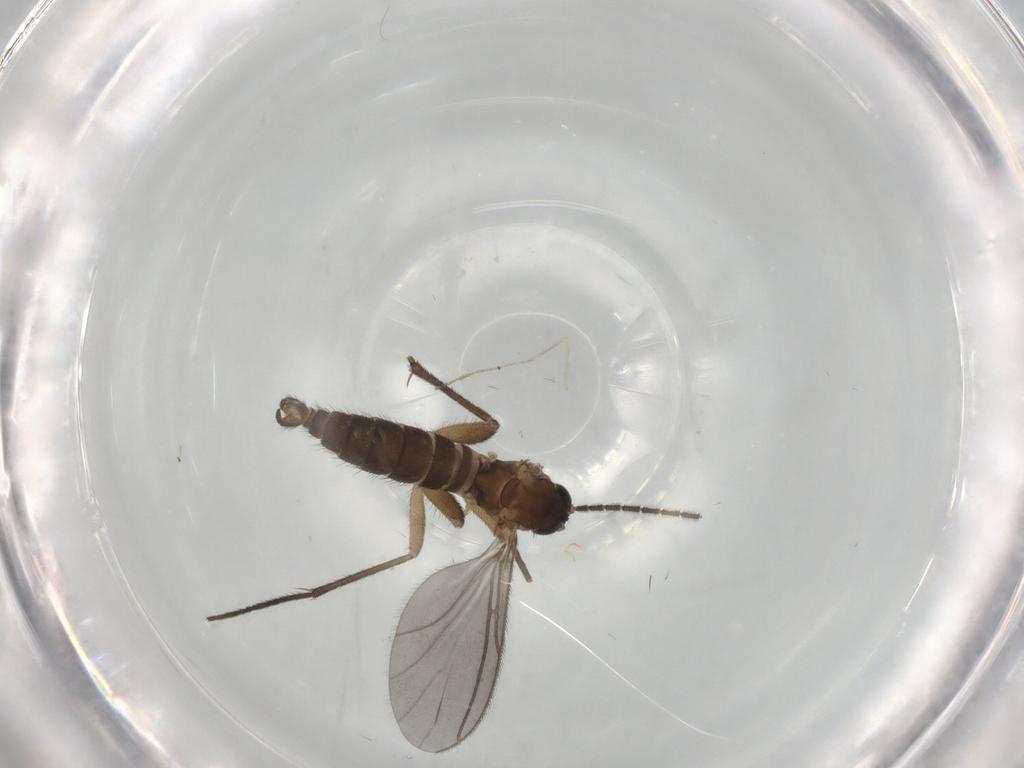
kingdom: Animalia
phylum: Arthropoda
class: Insecta
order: Diptera
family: Sciaridae
